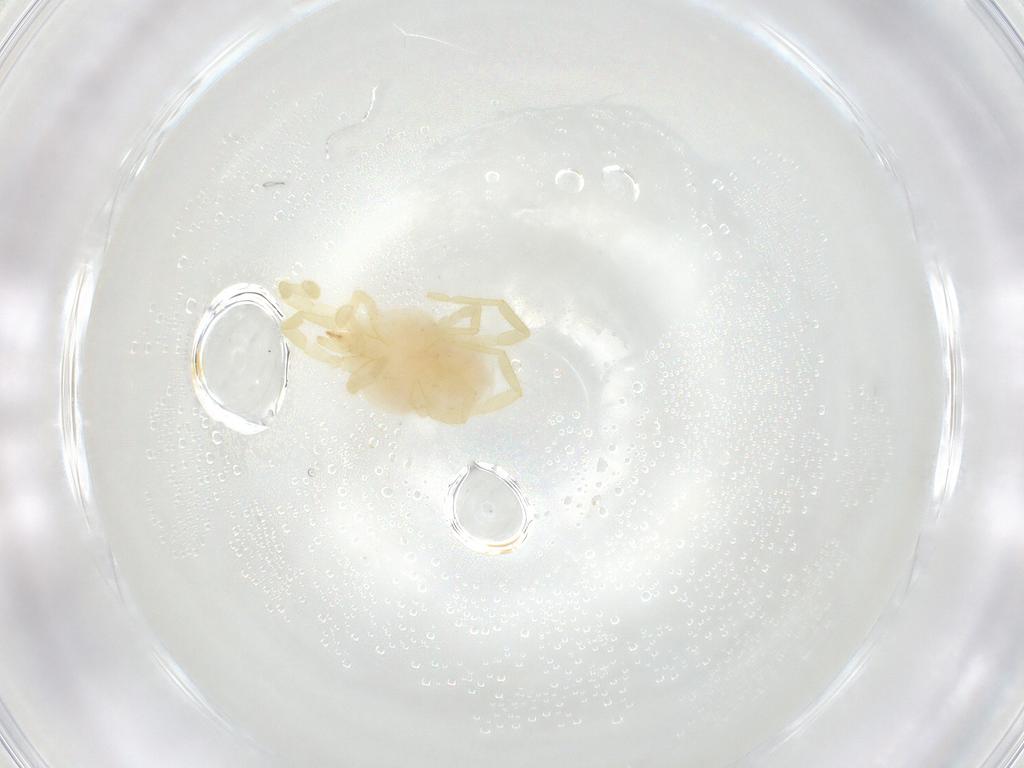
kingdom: Animalia
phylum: Arthropoda
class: Arachnida
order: Trombidiformes
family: Erythraeidae
